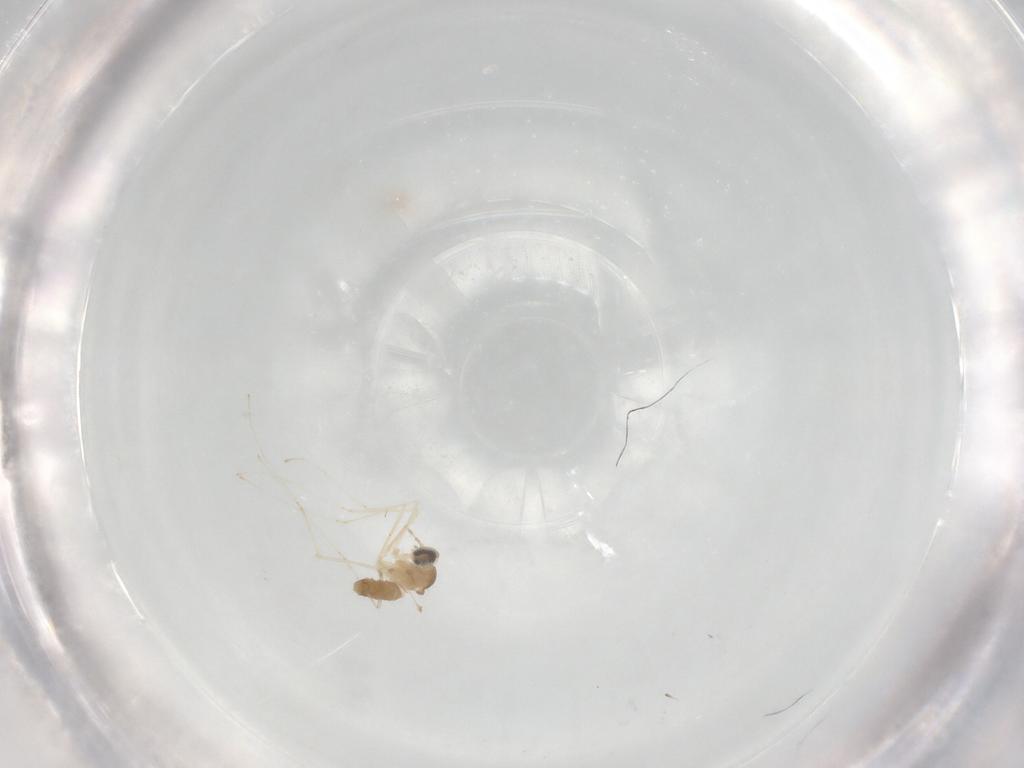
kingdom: Animalia
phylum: Arthropoda
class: Insecta
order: Diptera
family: Cecidomyiidae
